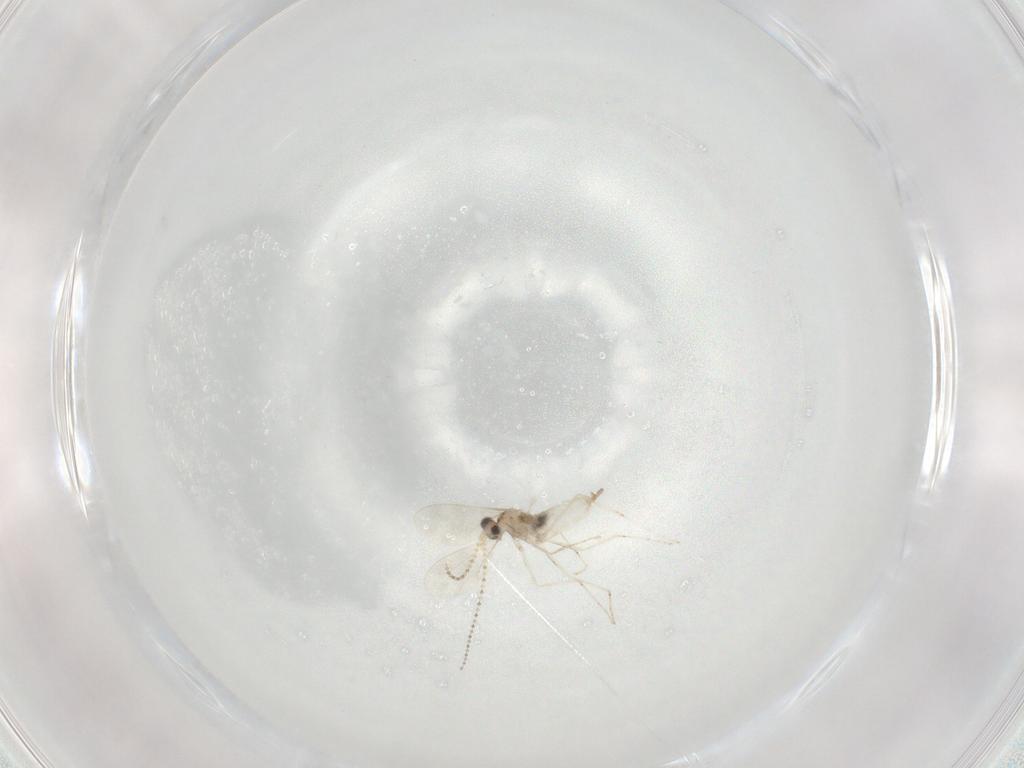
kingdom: Animalia
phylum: Arthropoda
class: Insecta
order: Diptera
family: Cecidomyiidae
